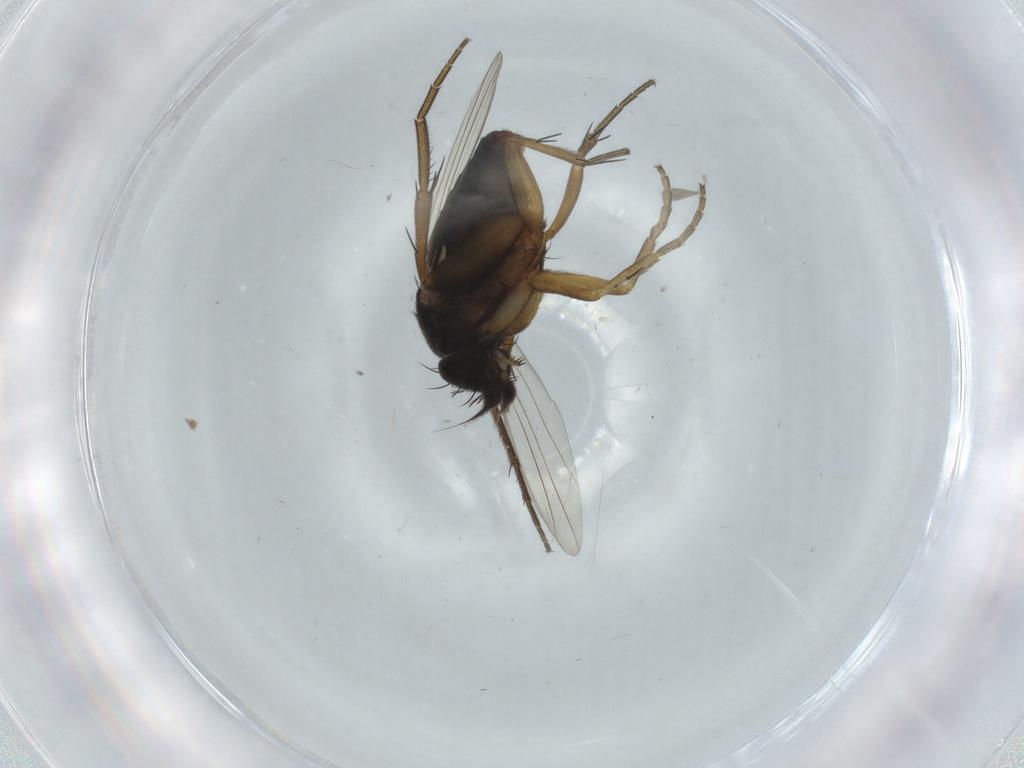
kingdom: Animalia
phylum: Arthropoda
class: Insecta
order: Diptera
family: Phoridae
